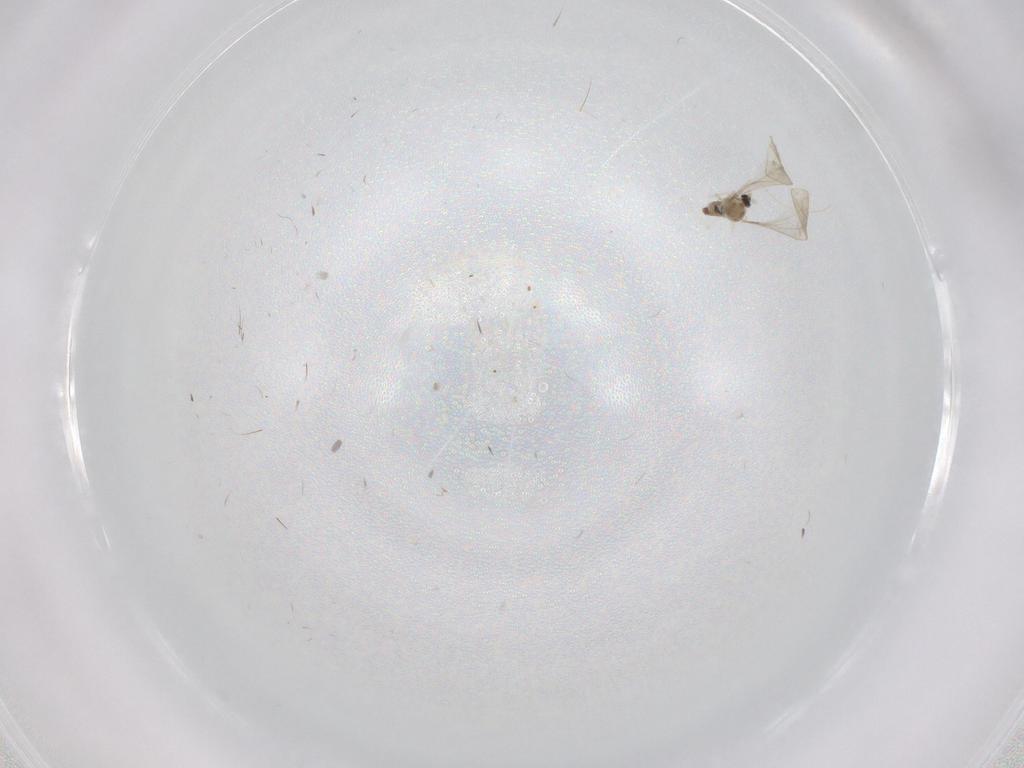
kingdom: Animalia
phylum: Arthropoda
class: Insecta
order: Diptera
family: Cecidomyiidae
